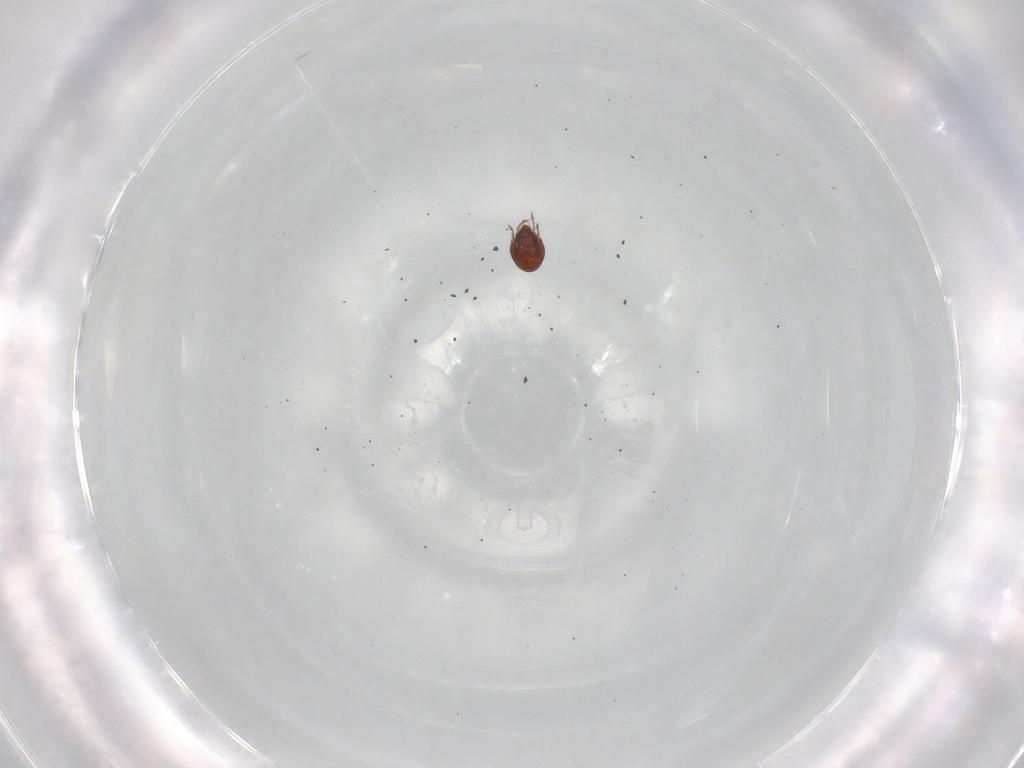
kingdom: Animalia
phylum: Arthropoda
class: Arachnida
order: Sarcoptiformes
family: Ceratozetidae
